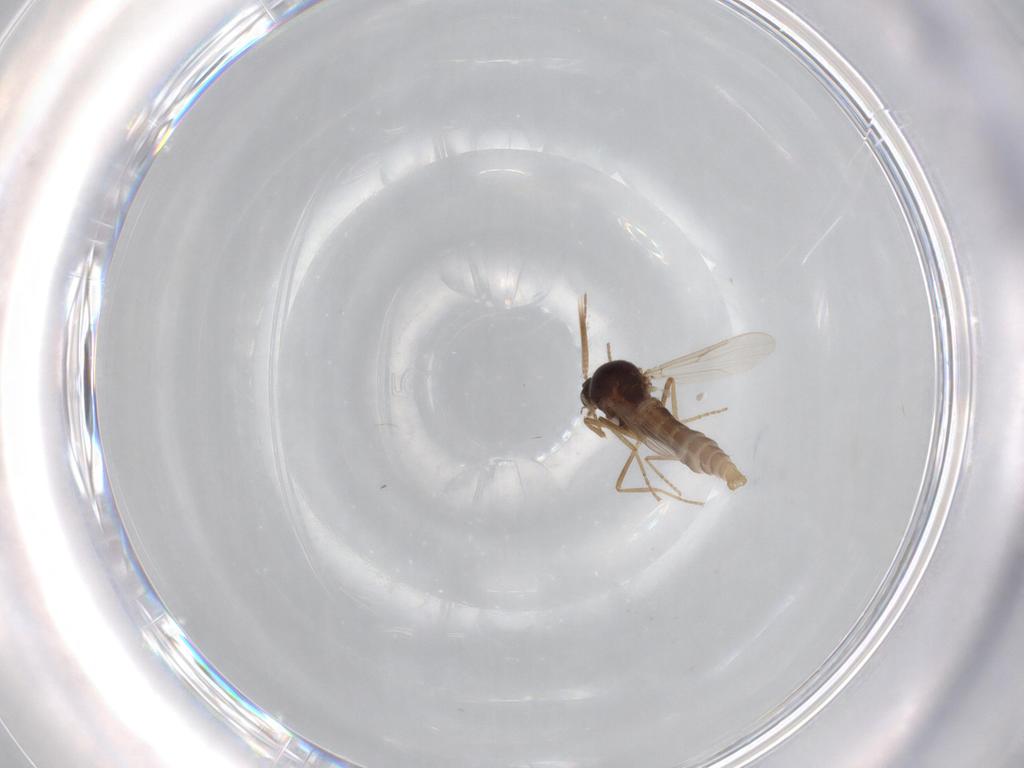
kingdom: Animalia
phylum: Arthropoda
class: Insecta
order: Diptera
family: Ceratopogonidae
